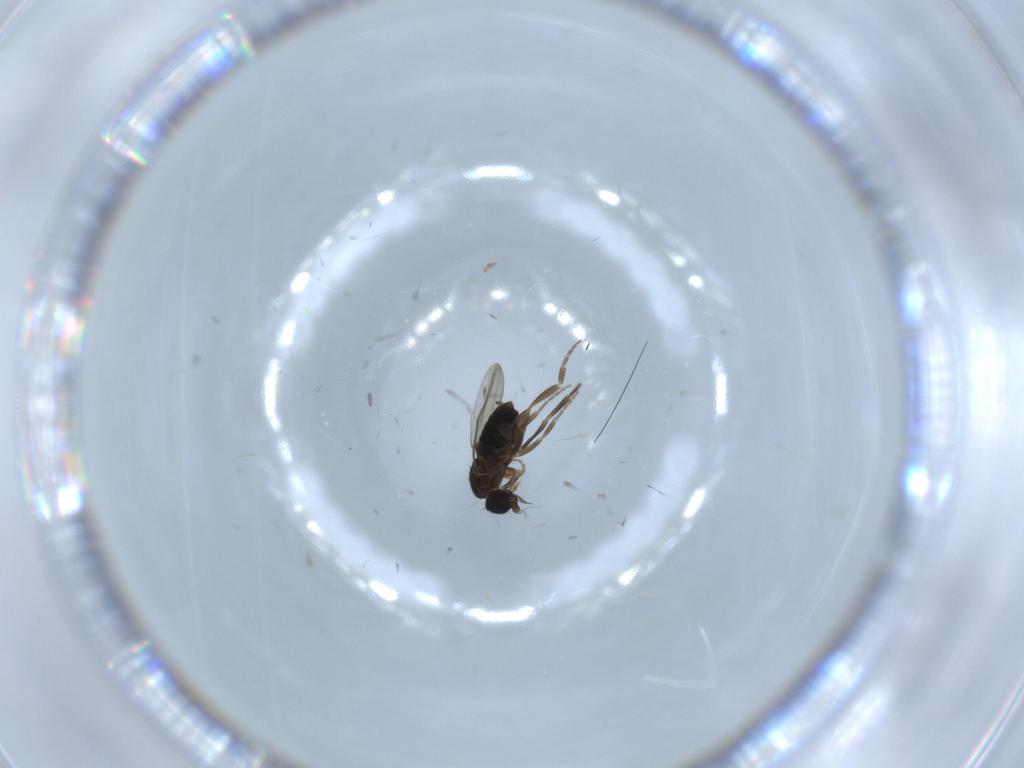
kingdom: Animalia
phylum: Arthropoda
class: Insecta
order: Diptera
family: Phoridae
